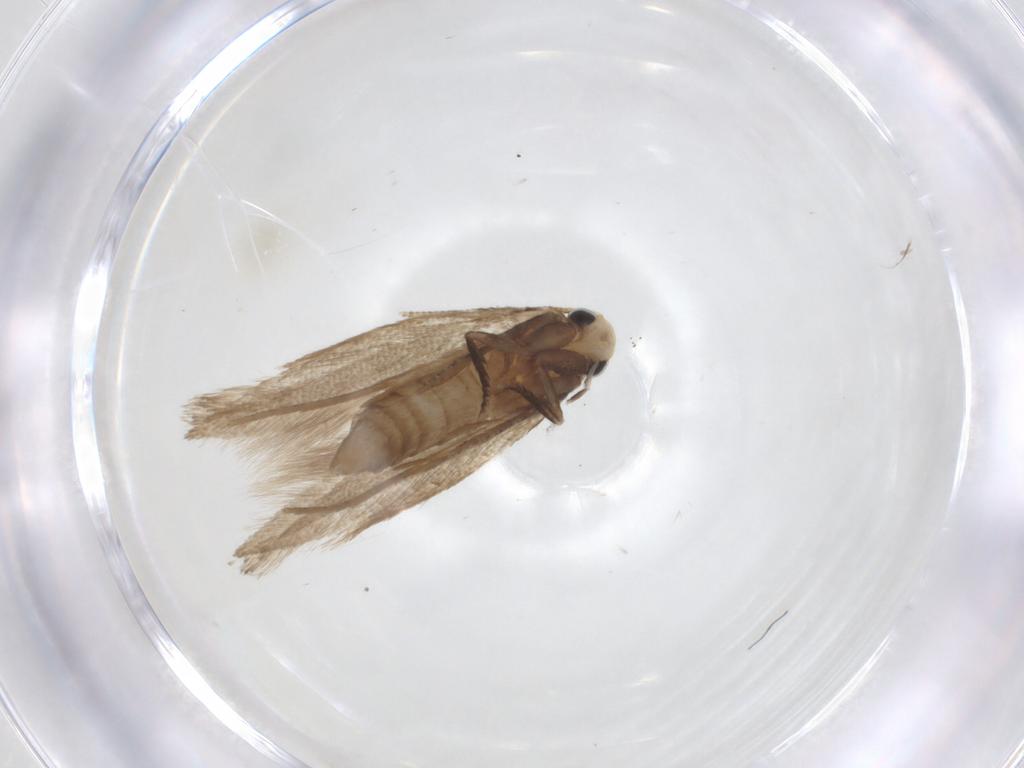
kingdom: Animalia
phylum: Arthropoda
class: Insecta
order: Lepidoptera
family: Tineidae
